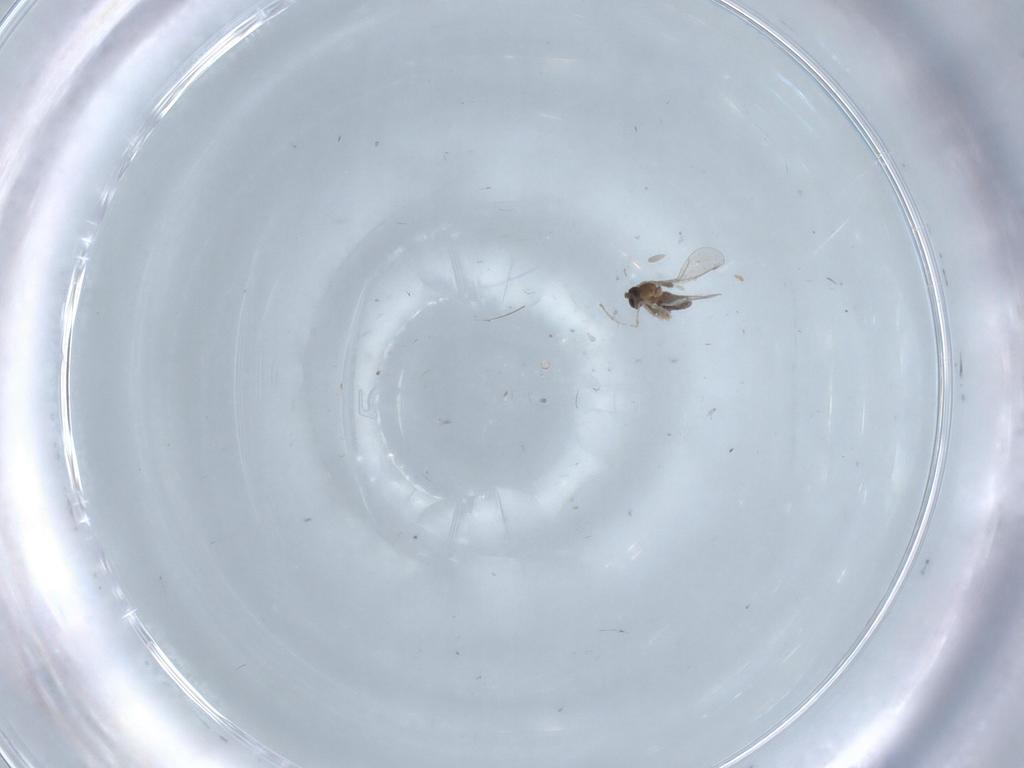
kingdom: Animalia
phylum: Arthropoda
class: Insecta
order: Diptera
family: Cecidomyiidae
